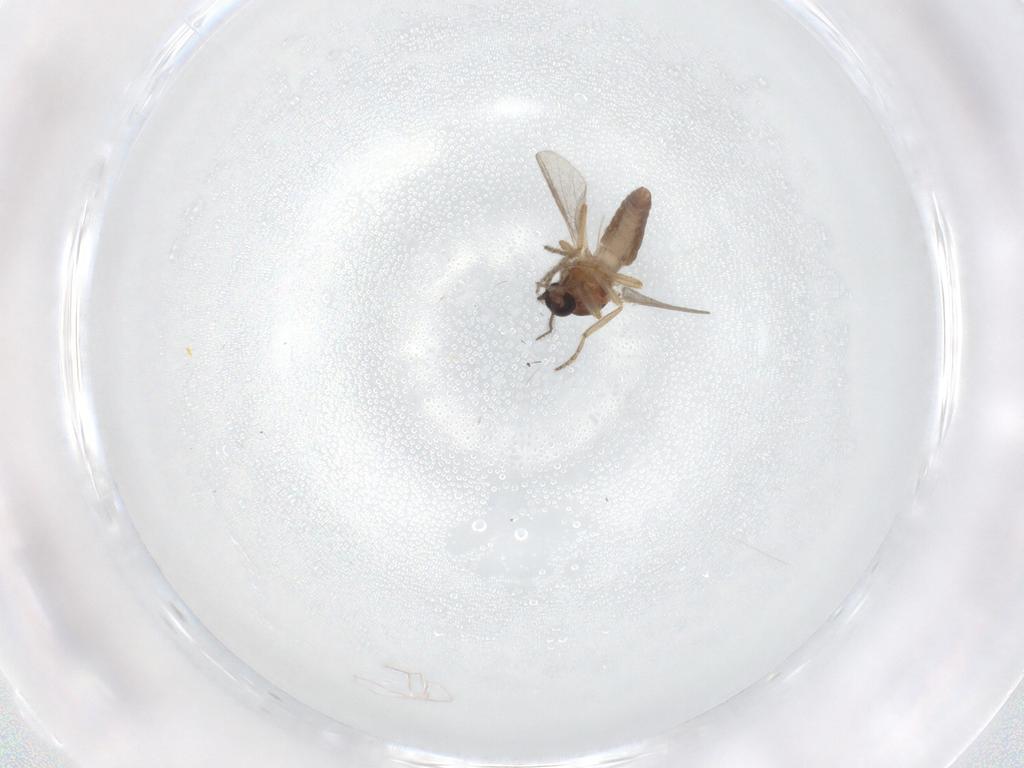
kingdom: Animalia
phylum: Arthropoda
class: Insecta
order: Diptera
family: Ceratopogonidae
